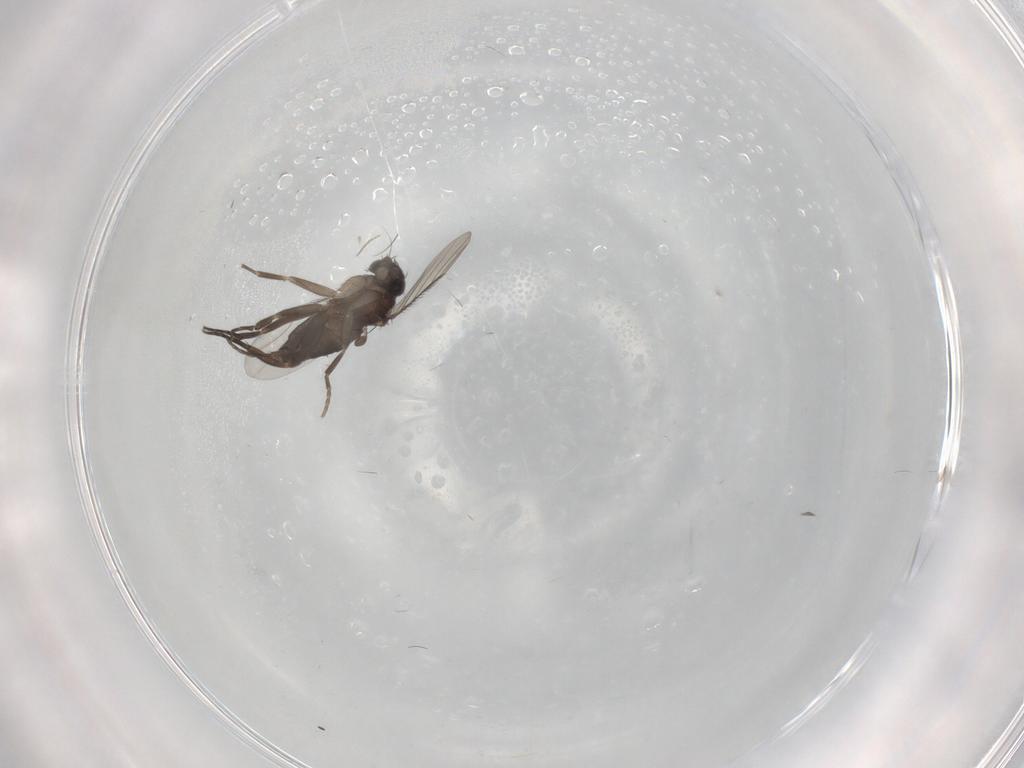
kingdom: Animalia
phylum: Arthropoda
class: Insecta
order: Diptera
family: Phoridae
